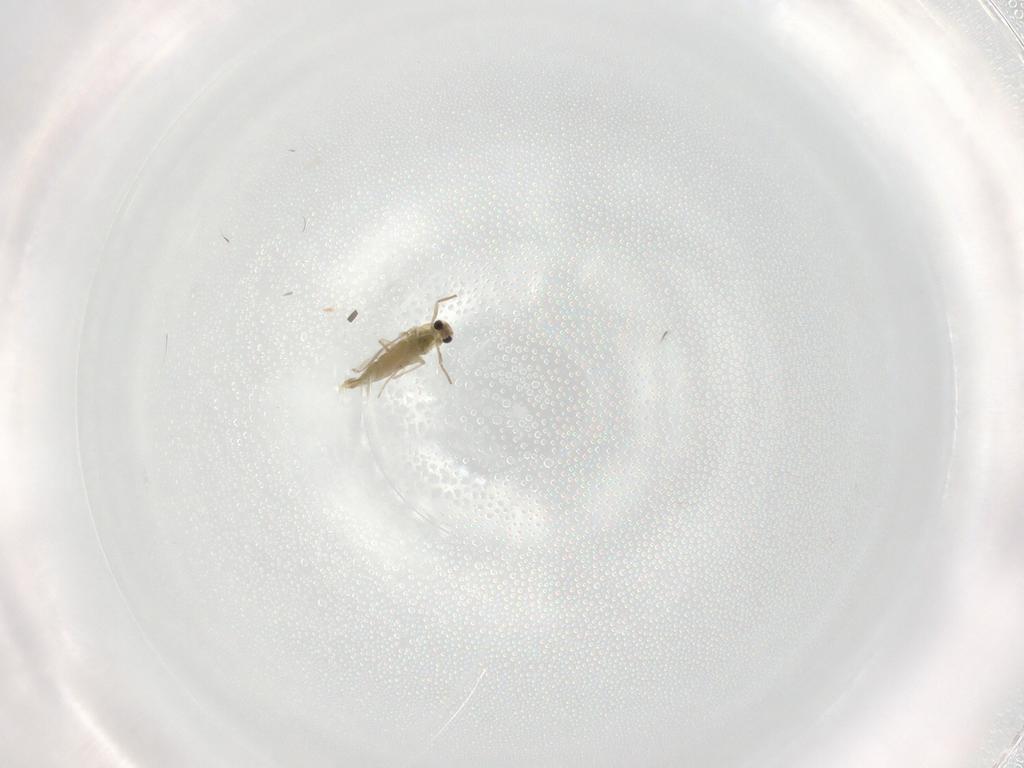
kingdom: Animalia
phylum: Arthropoda
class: Insecta
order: Diptera
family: Chironomidae
